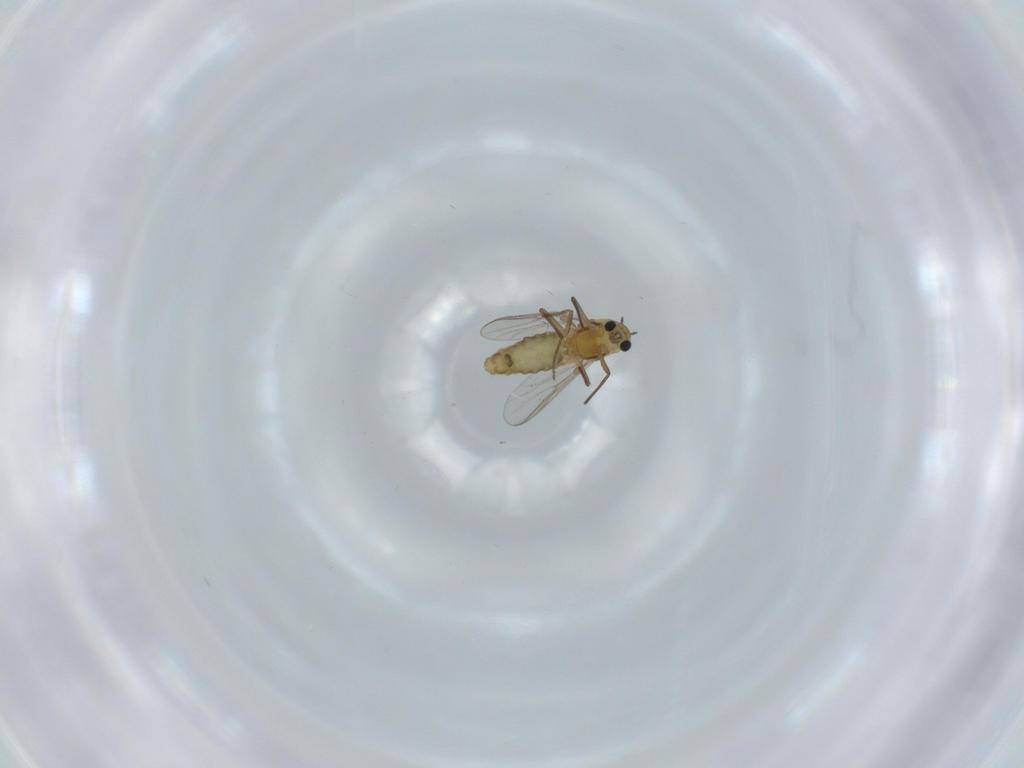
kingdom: Animalia
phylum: Arthropoda
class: Insecta
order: Diptera
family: Chironomidae
